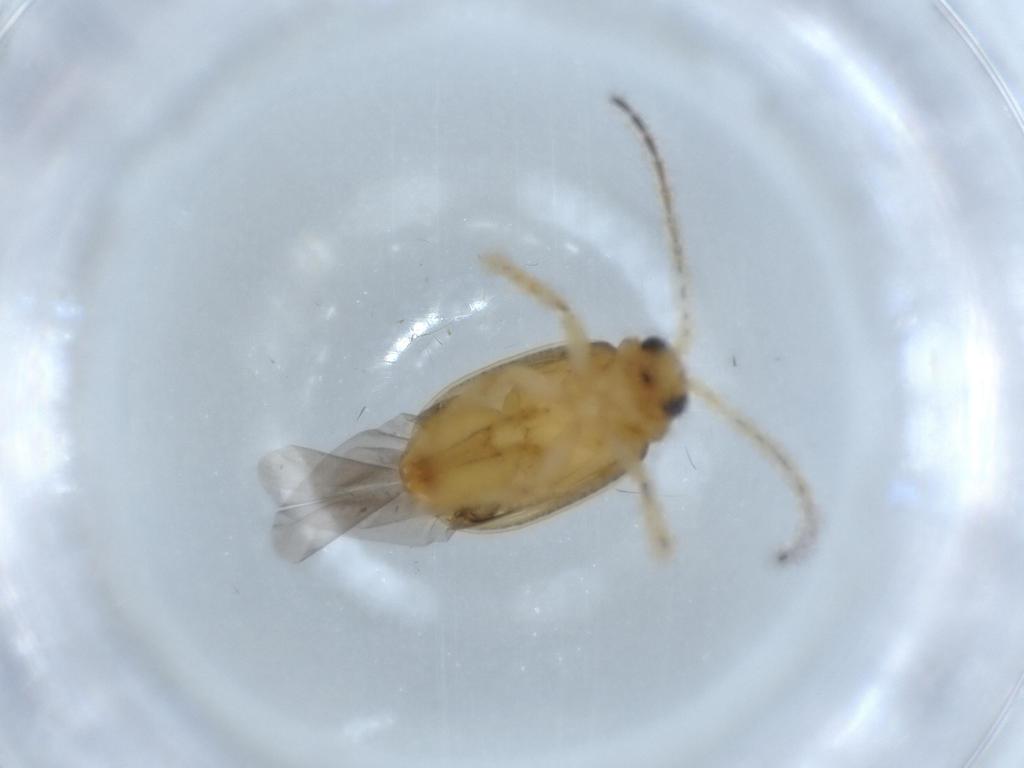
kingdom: Animalia
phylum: Arthropoda
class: Insecta
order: Coleoptera
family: Chrysomelidae
